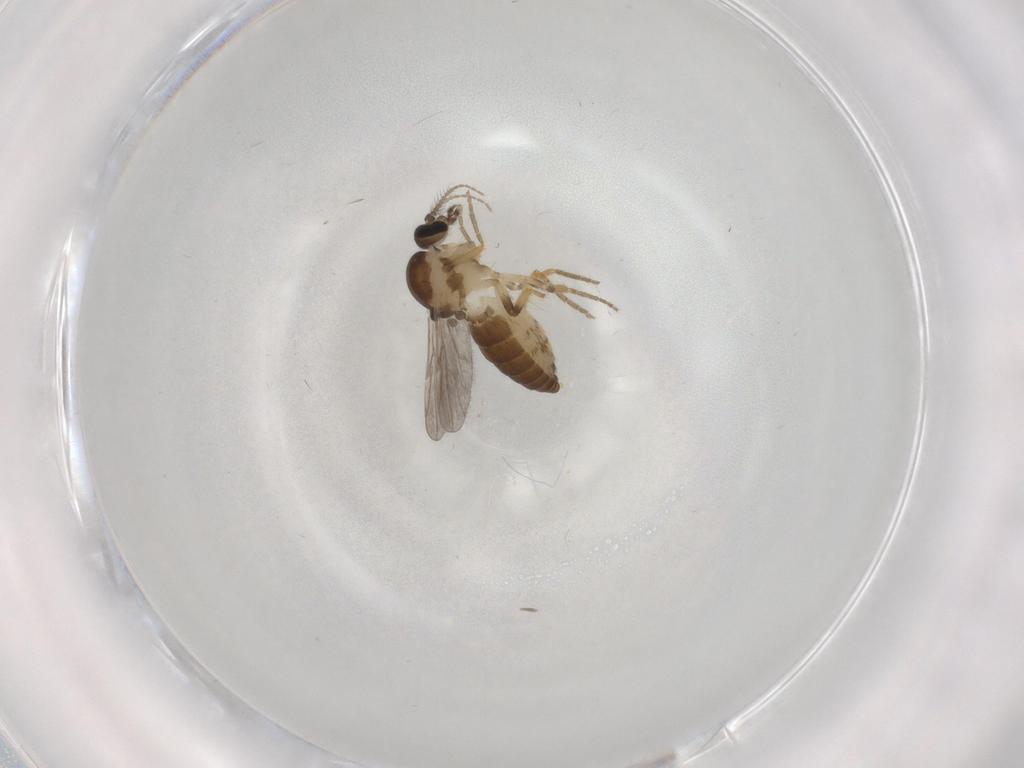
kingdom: Animalia
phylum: Arthropoda
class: Insecta
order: Diptera
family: Ceratopogonidae
